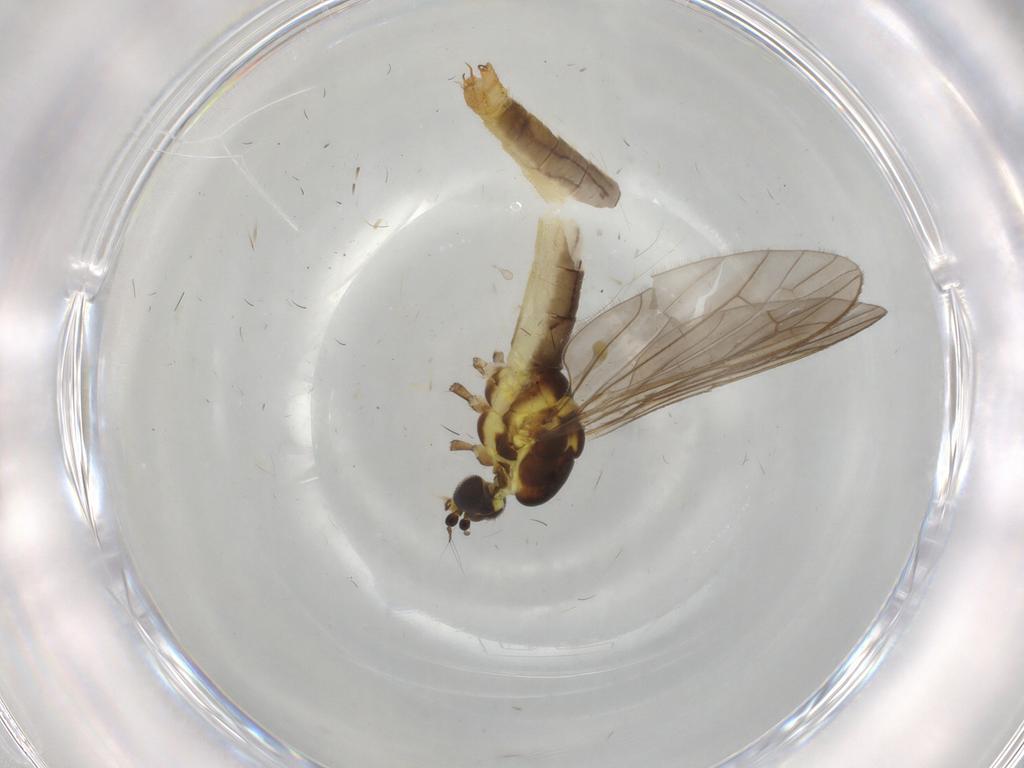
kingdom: Animalia
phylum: Arthropoda
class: Insecta
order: Diptera
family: Limoniidae
